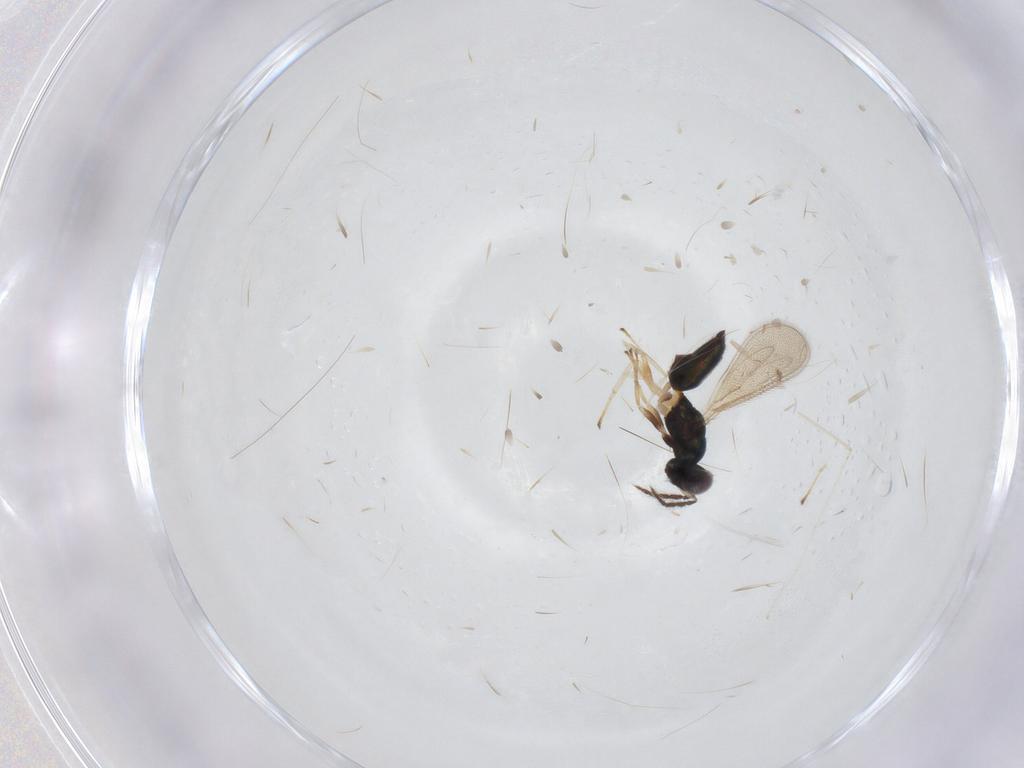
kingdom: Animalia
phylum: Arthropoda
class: Insecta
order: Hymenoptera
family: Eulophidae
